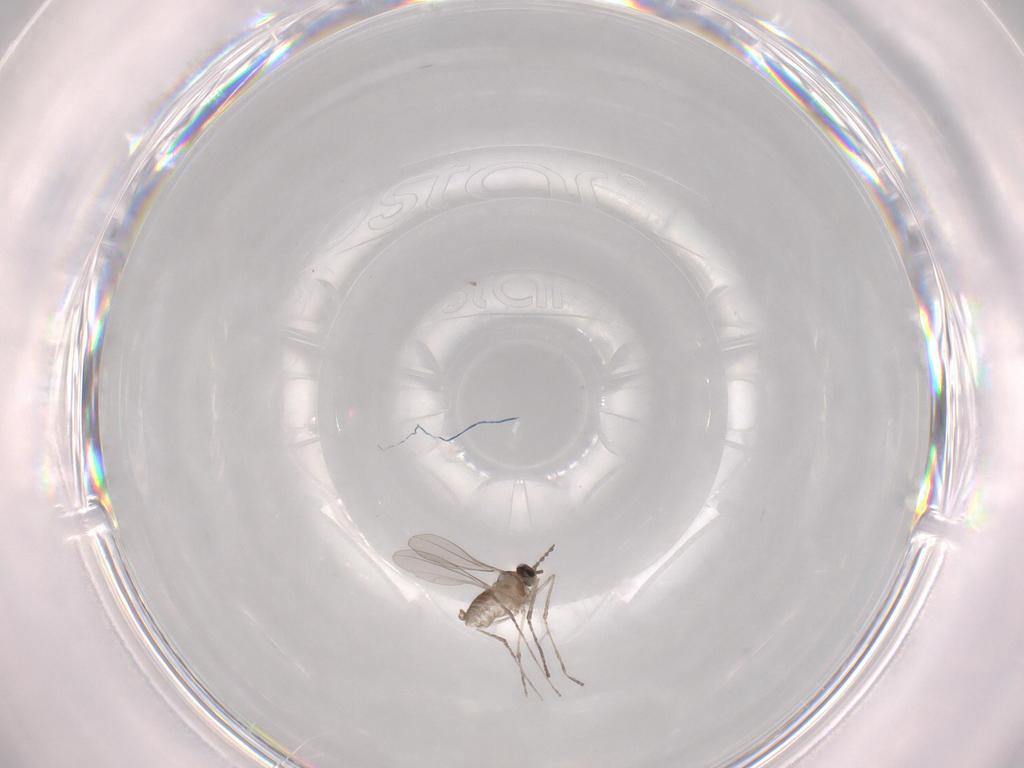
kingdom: Animalia
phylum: Arthropoda
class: Insecta
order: Diptera
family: Cecidomyiidae
